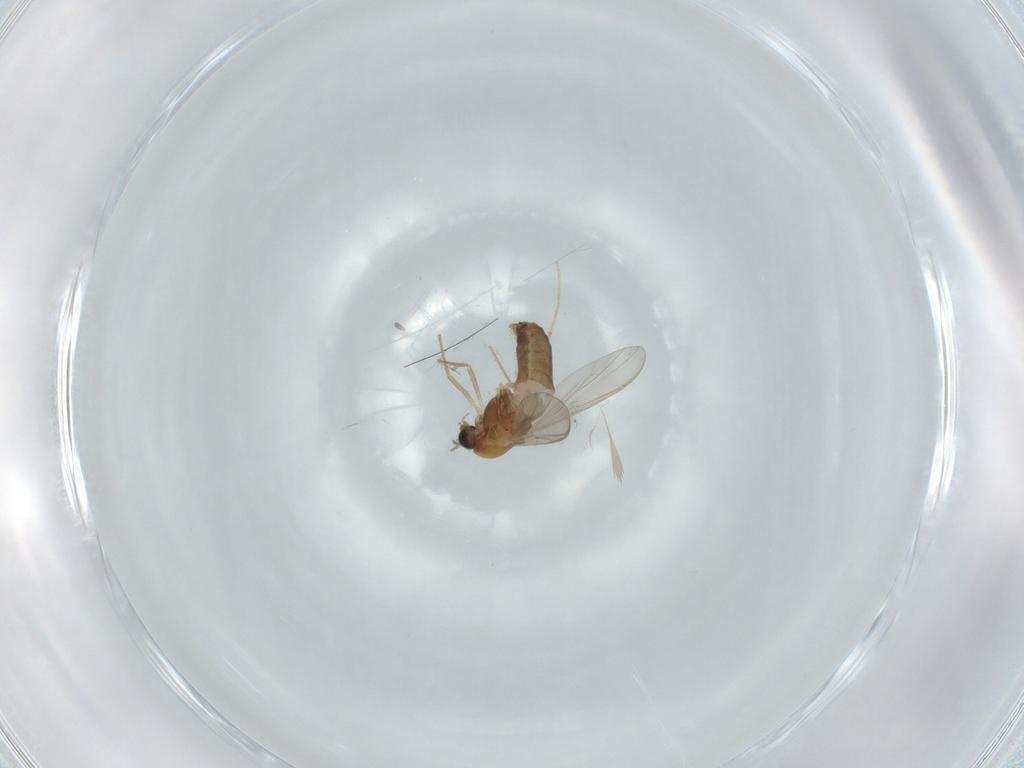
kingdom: Animalia
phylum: Arthropoda
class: Insecta
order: Diptera
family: Chironomidae
